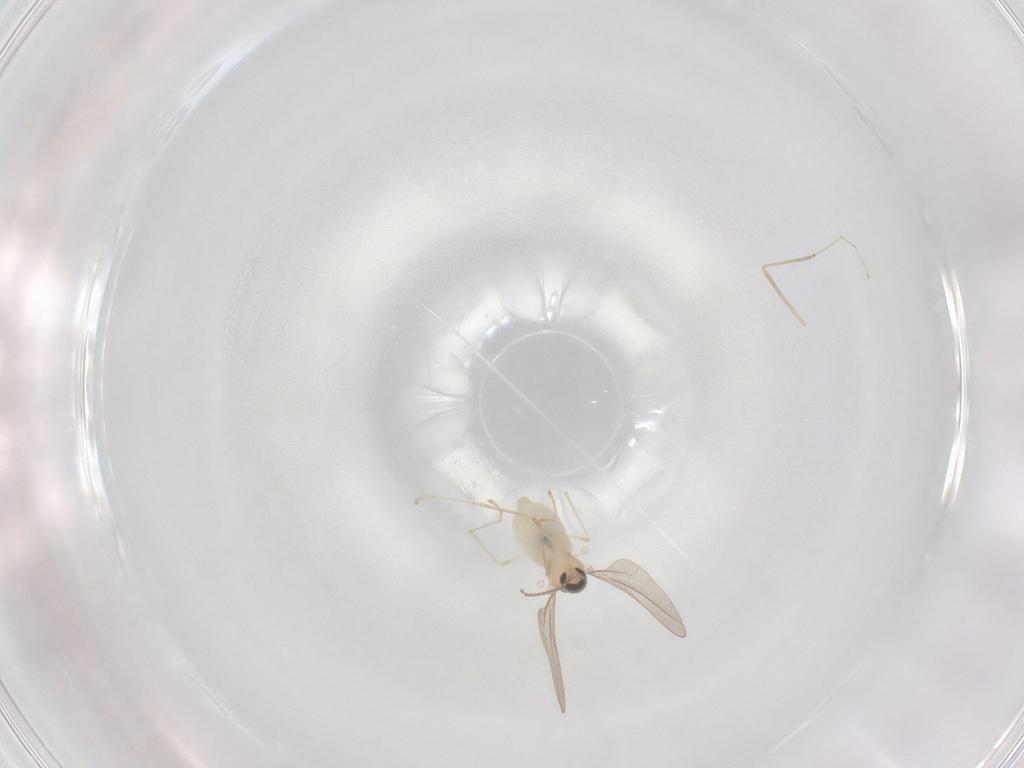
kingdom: Animalia
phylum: Arthropoda
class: Insecta
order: Diptera
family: Cecidomyiidae
